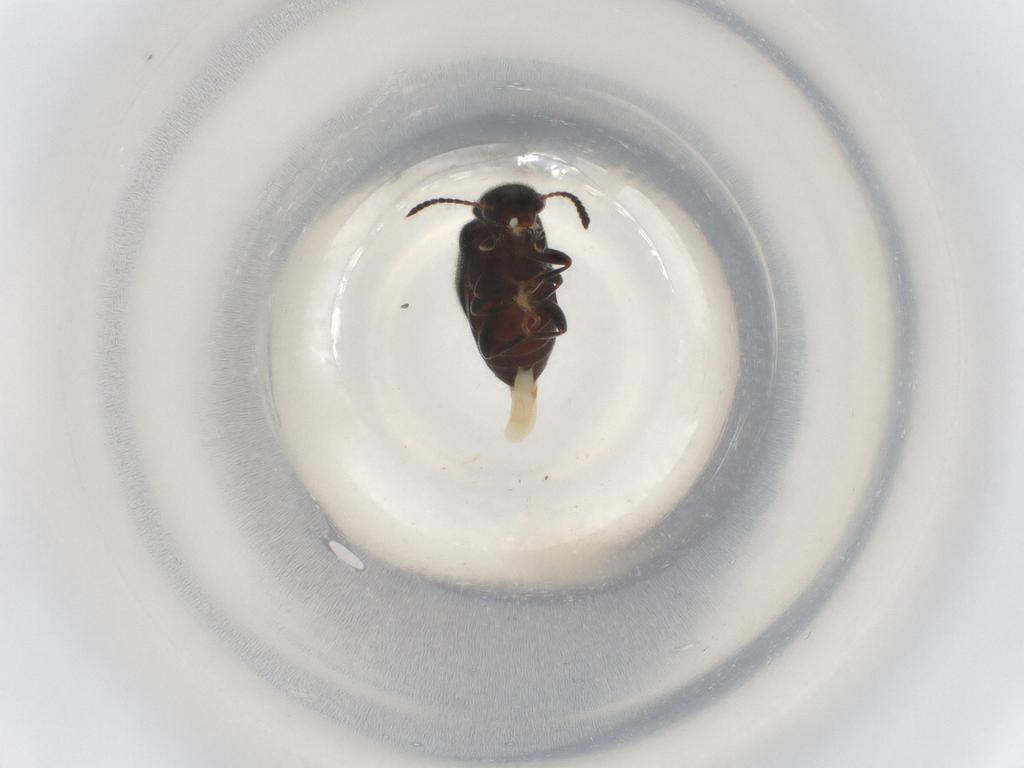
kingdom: Animalia
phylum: Arthropoda
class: Insecta
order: Coleoptera
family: Anthicidae
